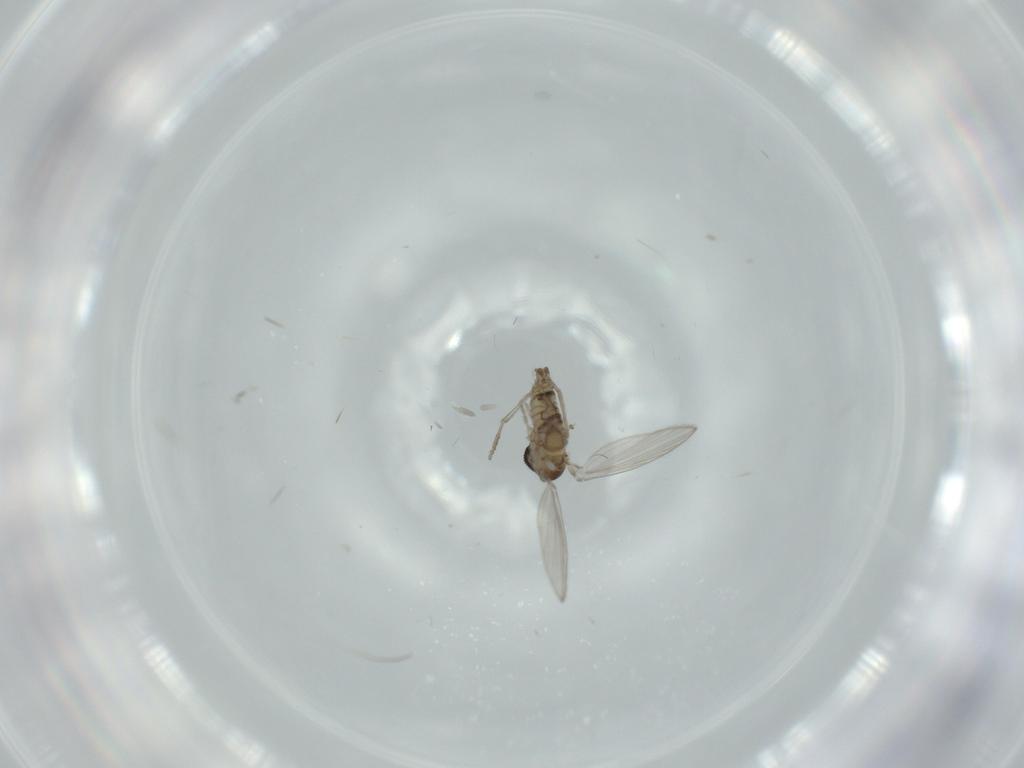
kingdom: Animalia
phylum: Arthropoda
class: Insecta
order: Diptera
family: Psychodidae
